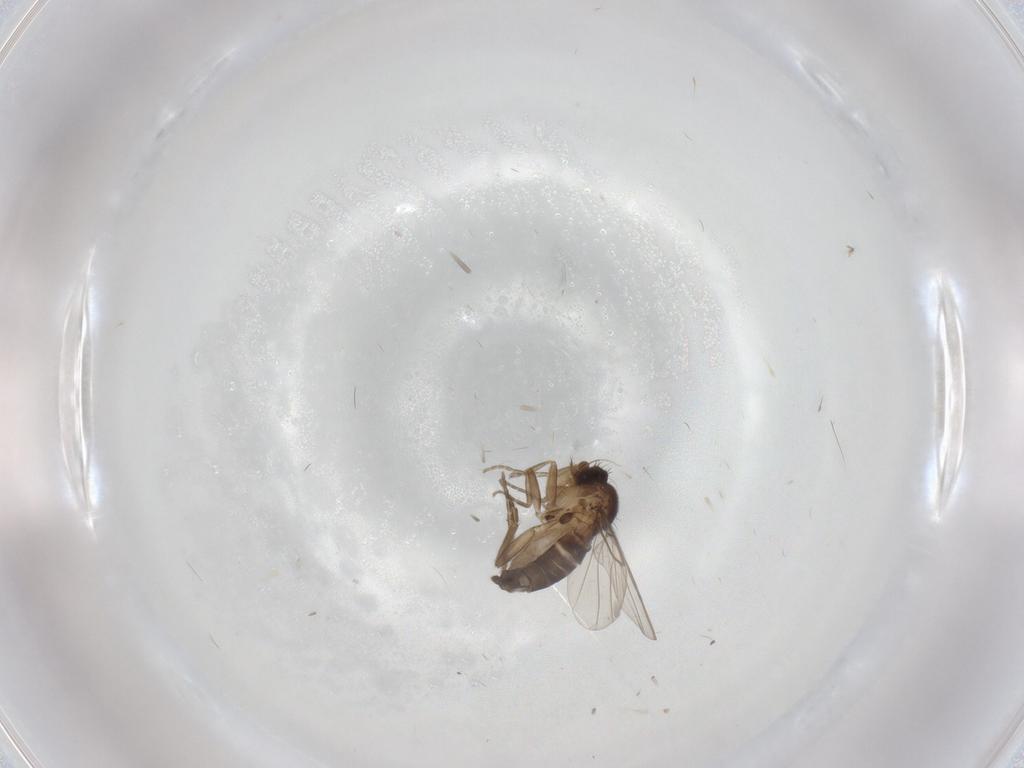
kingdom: Animalia
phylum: Arthropoda
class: Insecta
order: Diptera
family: Phoridae
